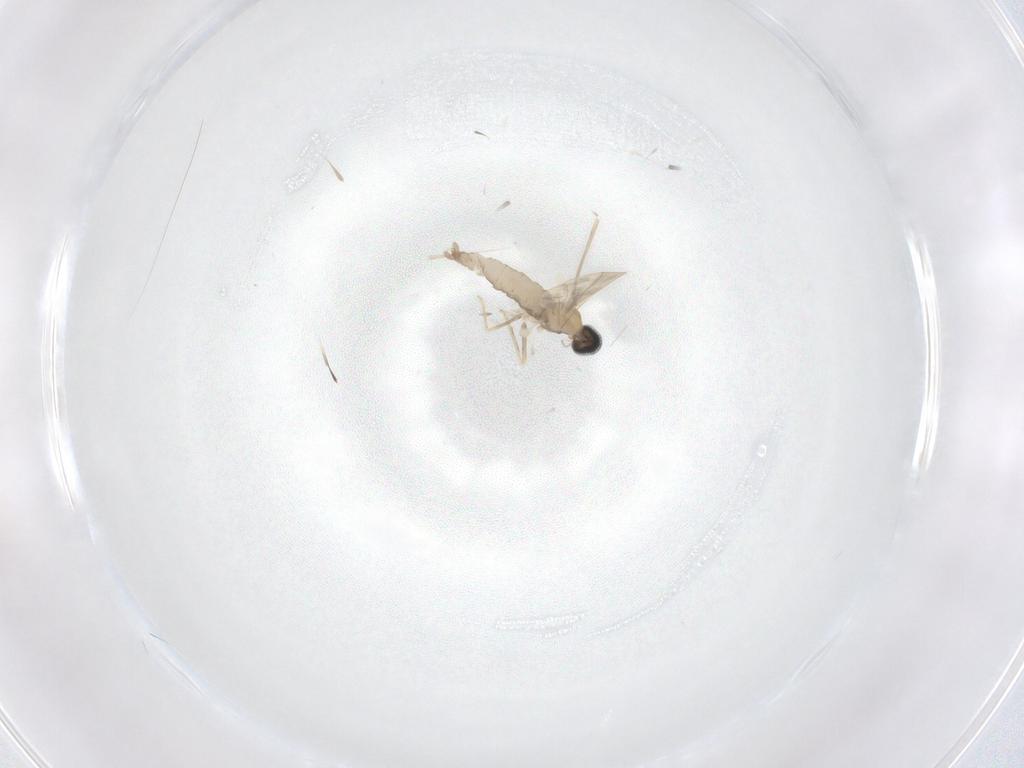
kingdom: Animalia
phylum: Arthropoda
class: Insecta
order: Diptera
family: Cecidomyiidae
